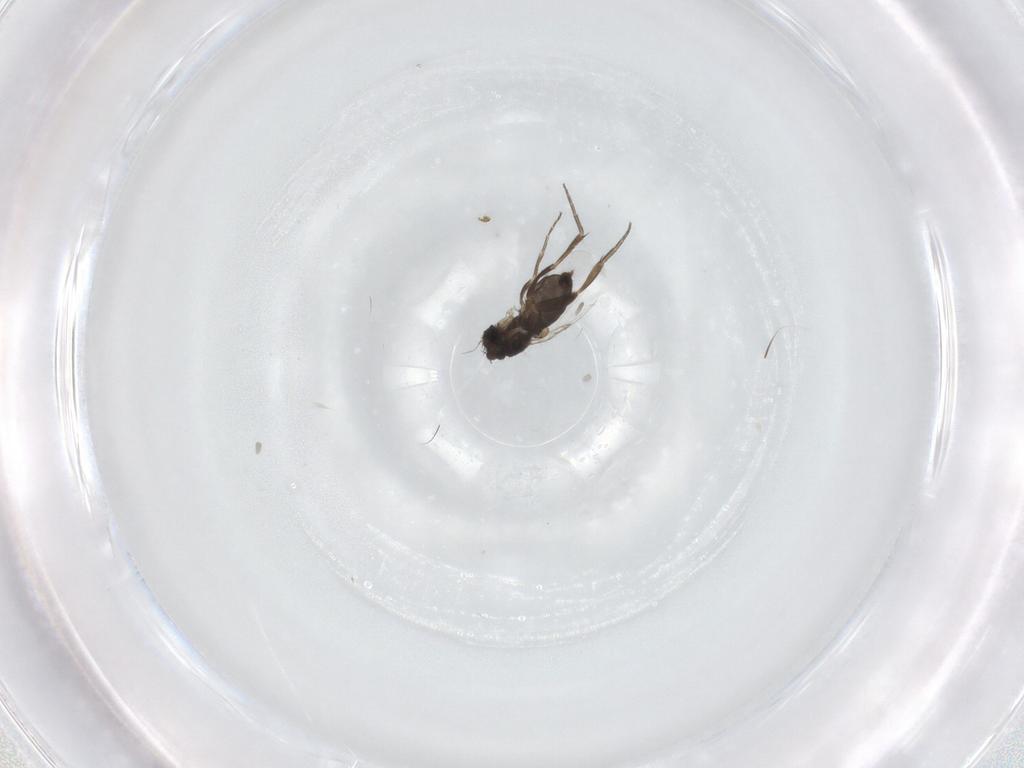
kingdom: Animalia
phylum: Arthropoda
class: Insecta
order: Diptera
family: Phoridae
